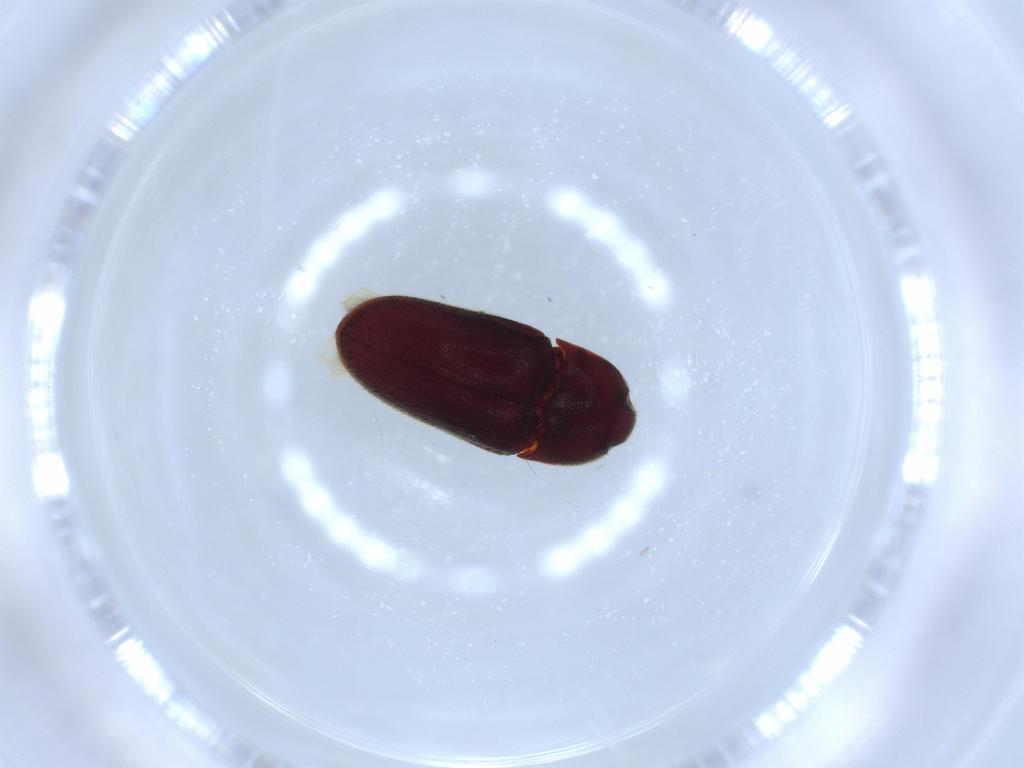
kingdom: Animalia
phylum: Arthropoda
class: Insecta
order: Coleoptera
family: Throscidae
